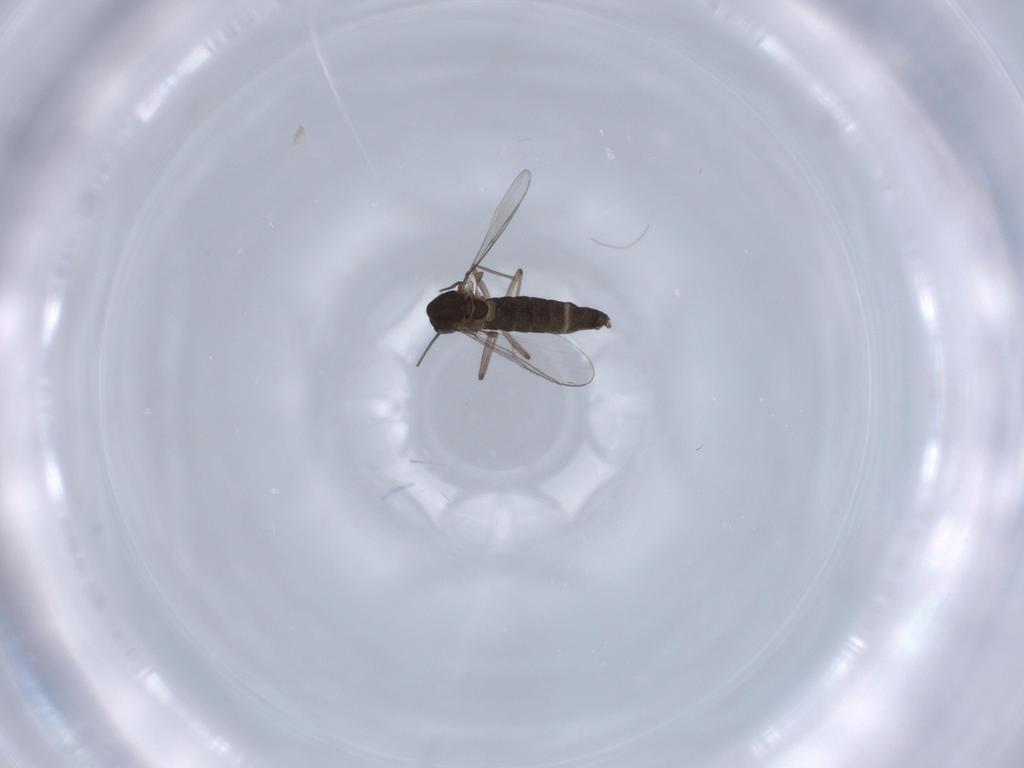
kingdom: Animalia
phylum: Arthropoda
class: Insecta
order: Diptera
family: Chironomidae
